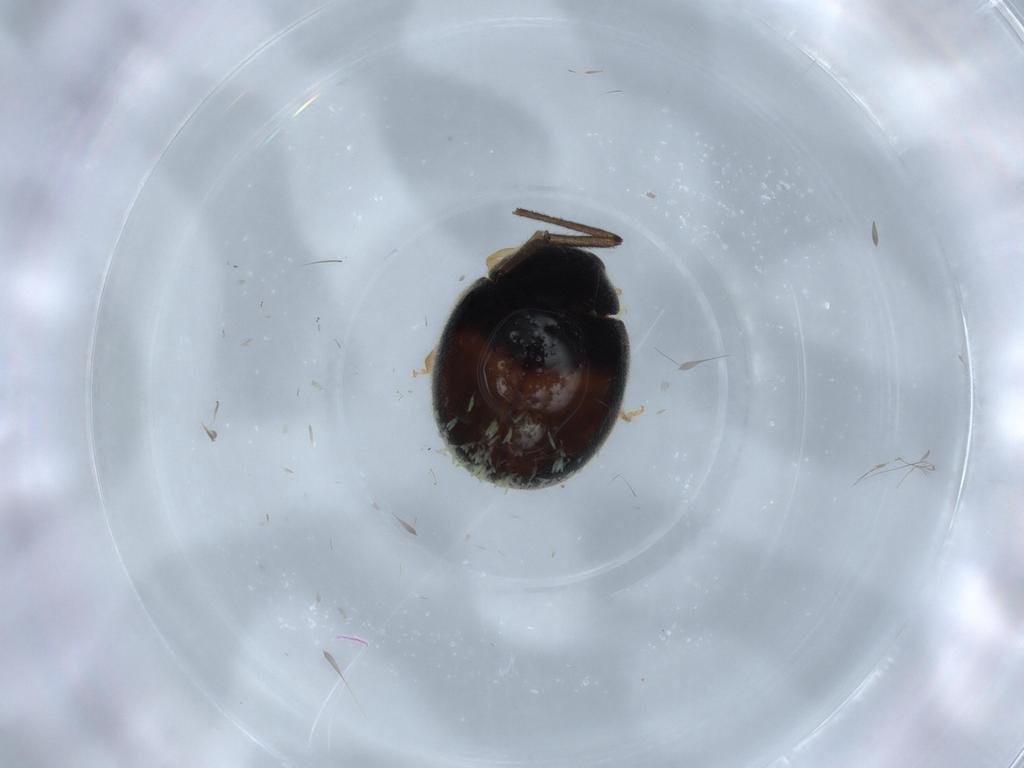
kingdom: Animalia
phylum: Arthropoda
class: Insecta
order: Coleoptera
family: Coccinellidae
